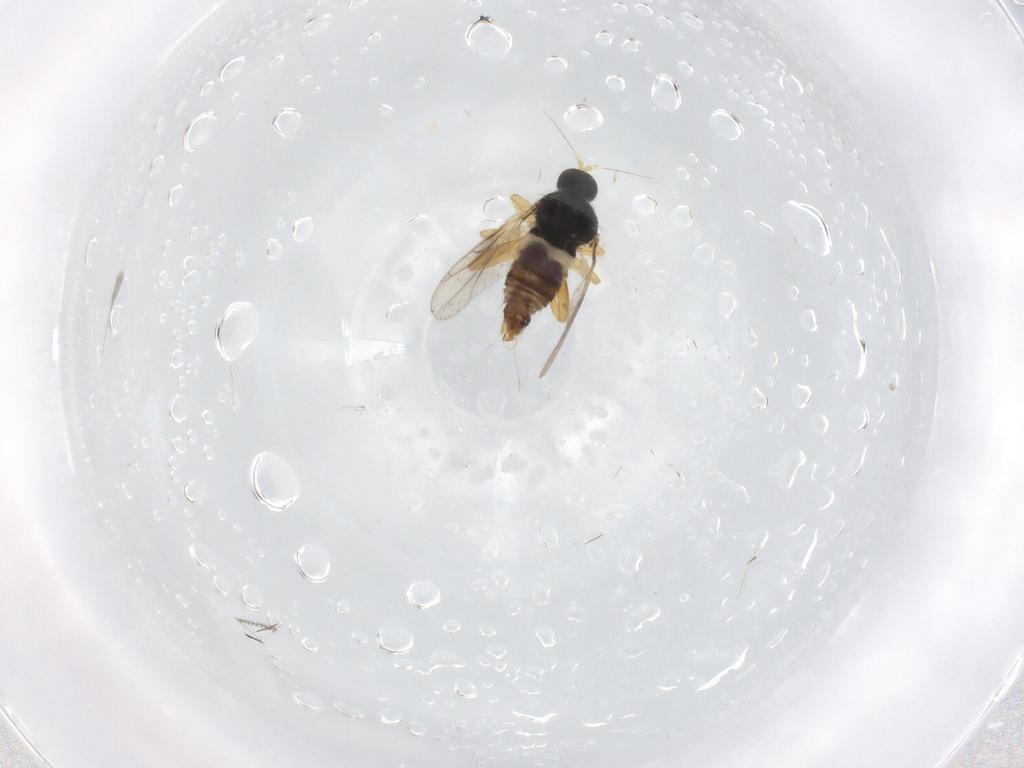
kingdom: Animalia
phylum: Arthropoda
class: Insecta
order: Diptera
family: Hybotidae
